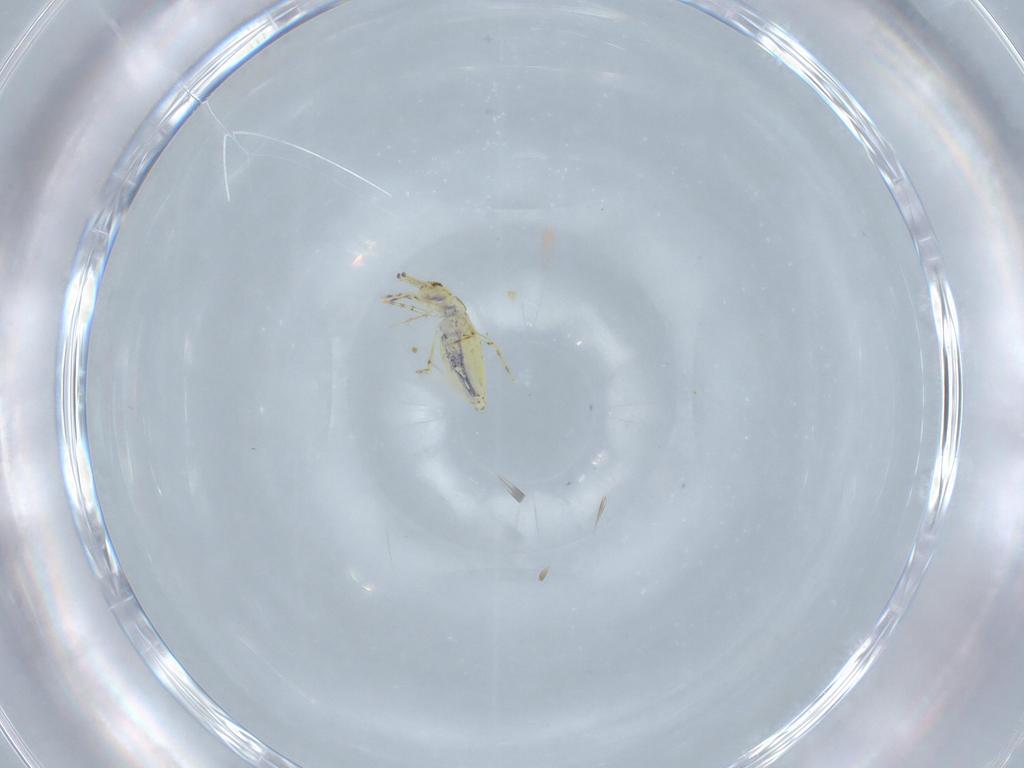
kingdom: Animalia
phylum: Arthropoda
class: Collembola
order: Entomobryomorpha
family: Paronellidae
